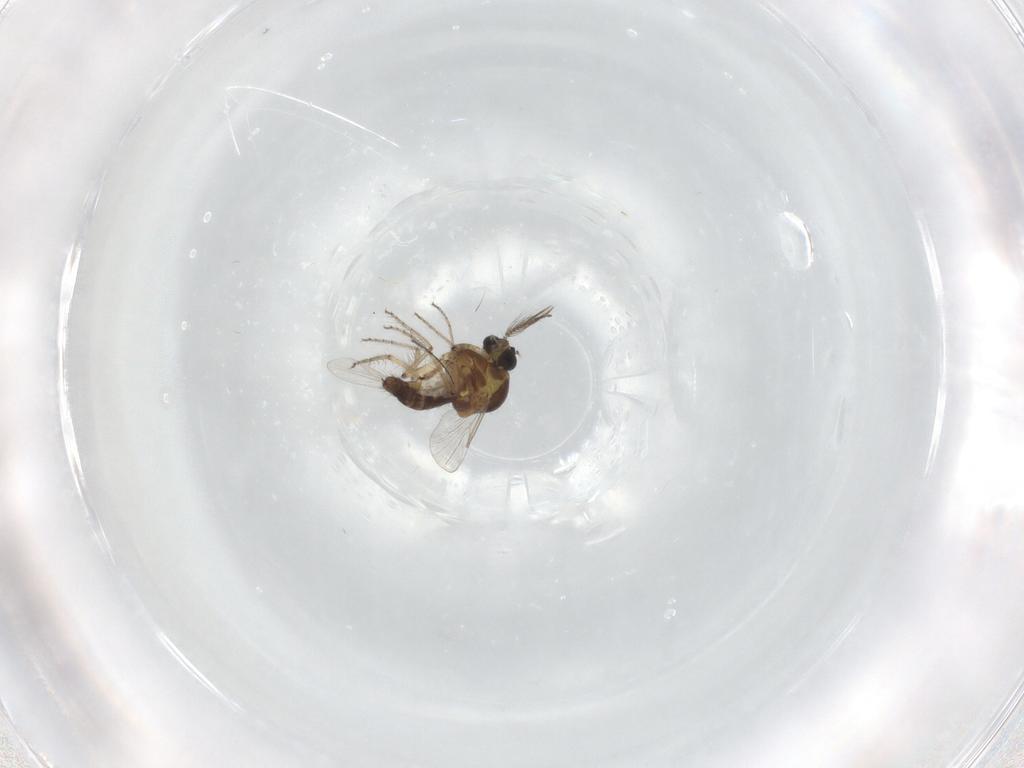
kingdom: Animalia
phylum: Arthropoda
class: Insecta
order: Diptera
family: Ceratopogonidae
